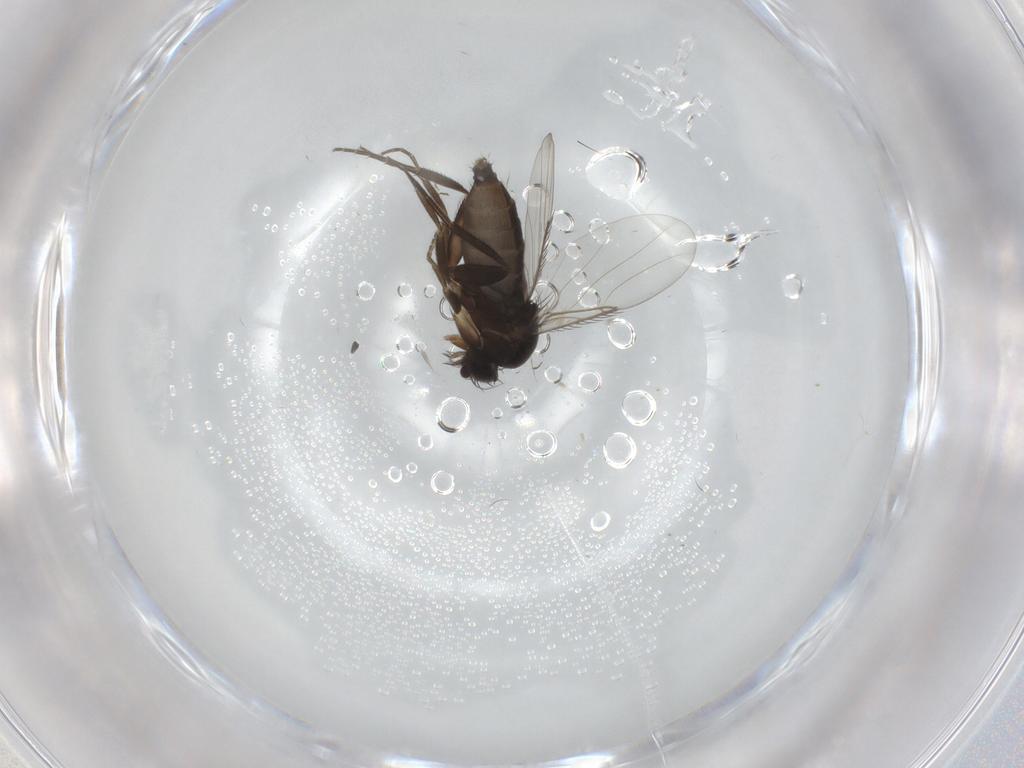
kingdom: Animalia
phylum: Arthropoda
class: Insecta
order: Diptera
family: Phoridae
